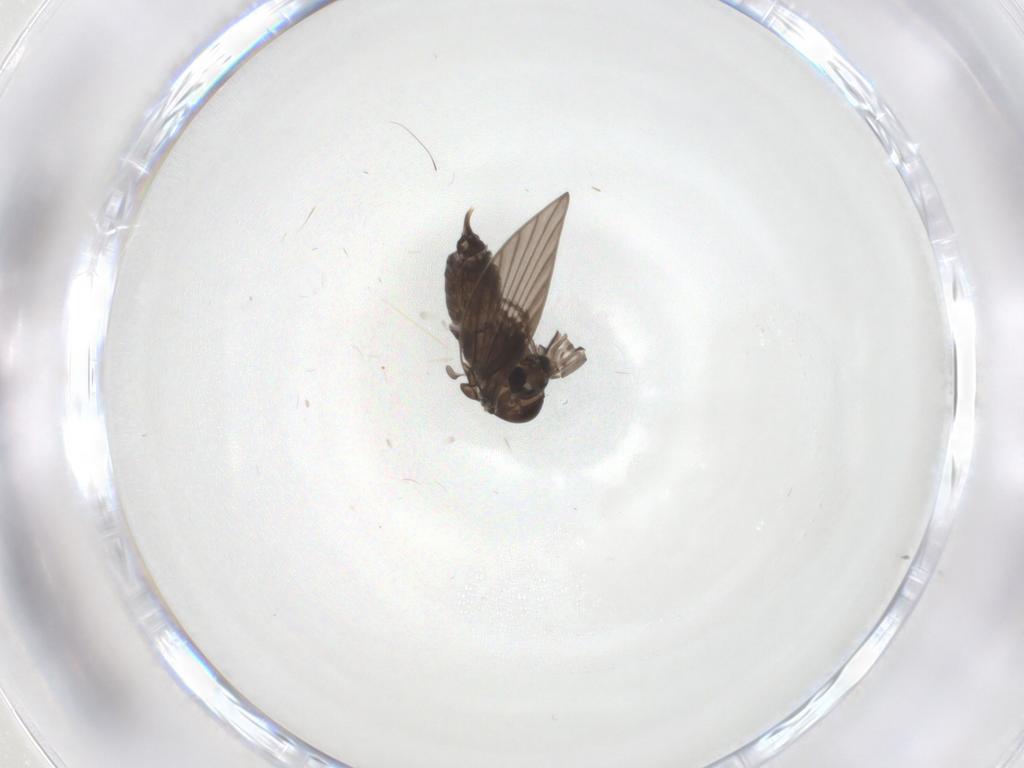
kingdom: Animalia
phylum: Arthropoda
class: Insecta
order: Diptera
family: Psychodidae
